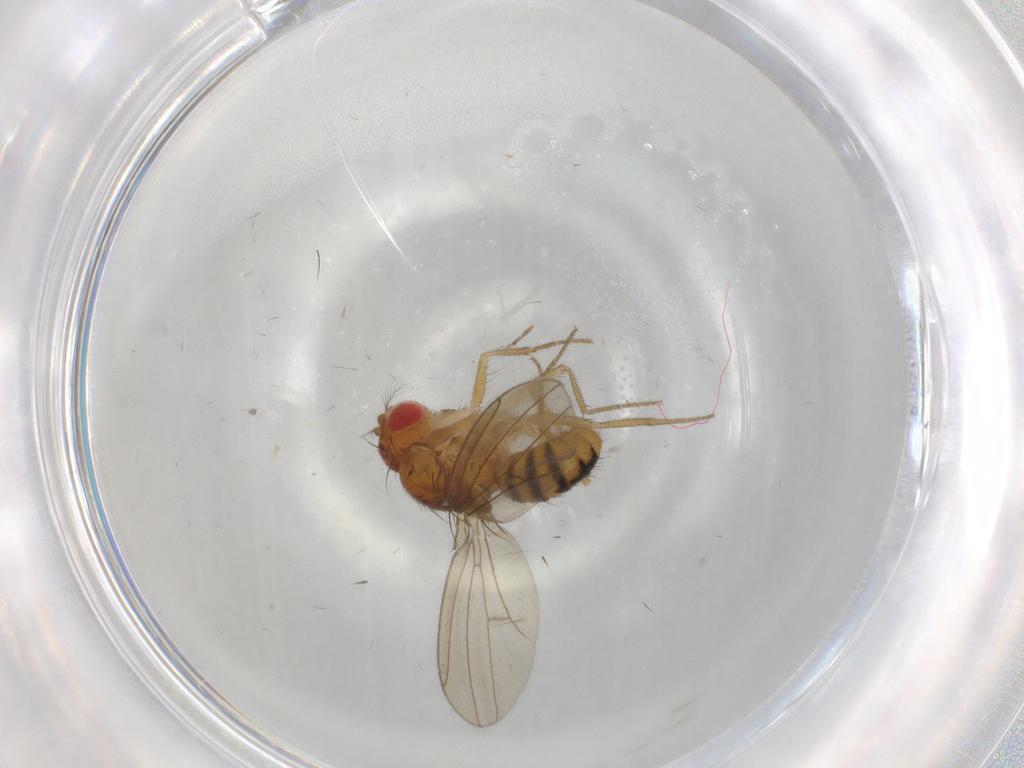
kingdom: Animalia
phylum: Arthropoda
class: Insecta
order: Diptera
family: Drosophilidae
